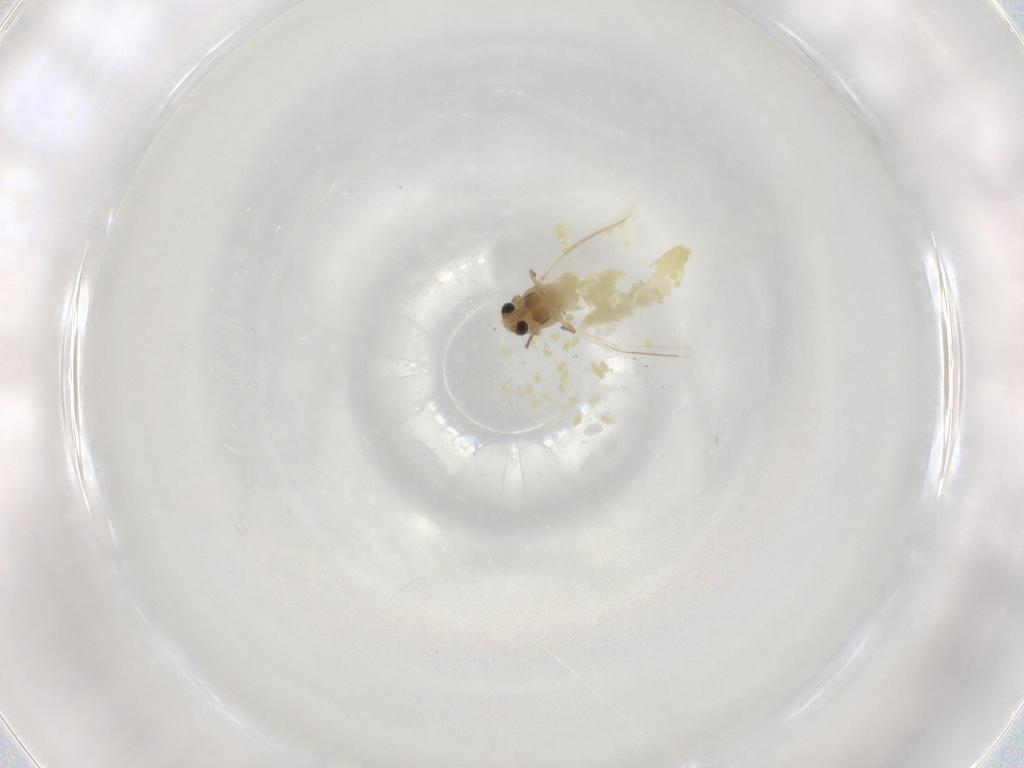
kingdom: Animalia
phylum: Arthropoda
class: Insecta
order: Diptera
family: Chironomidae
